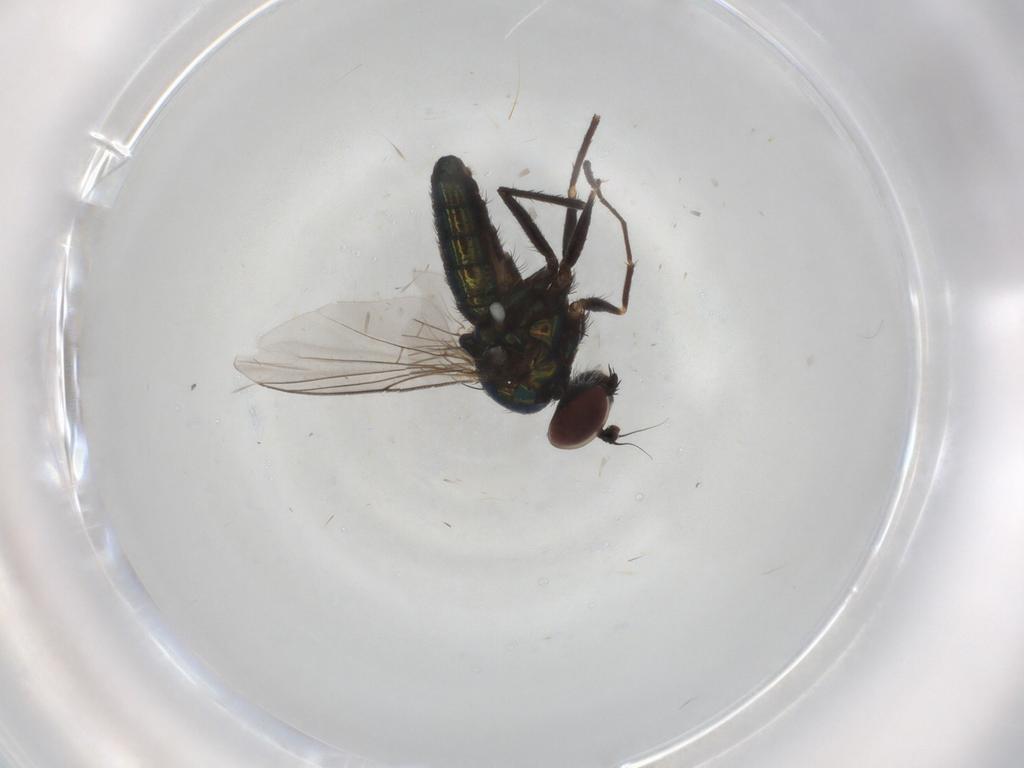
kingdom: Animalia
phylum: Arthropoda
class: Insecta
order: Diptera
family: Dolichopodidae
